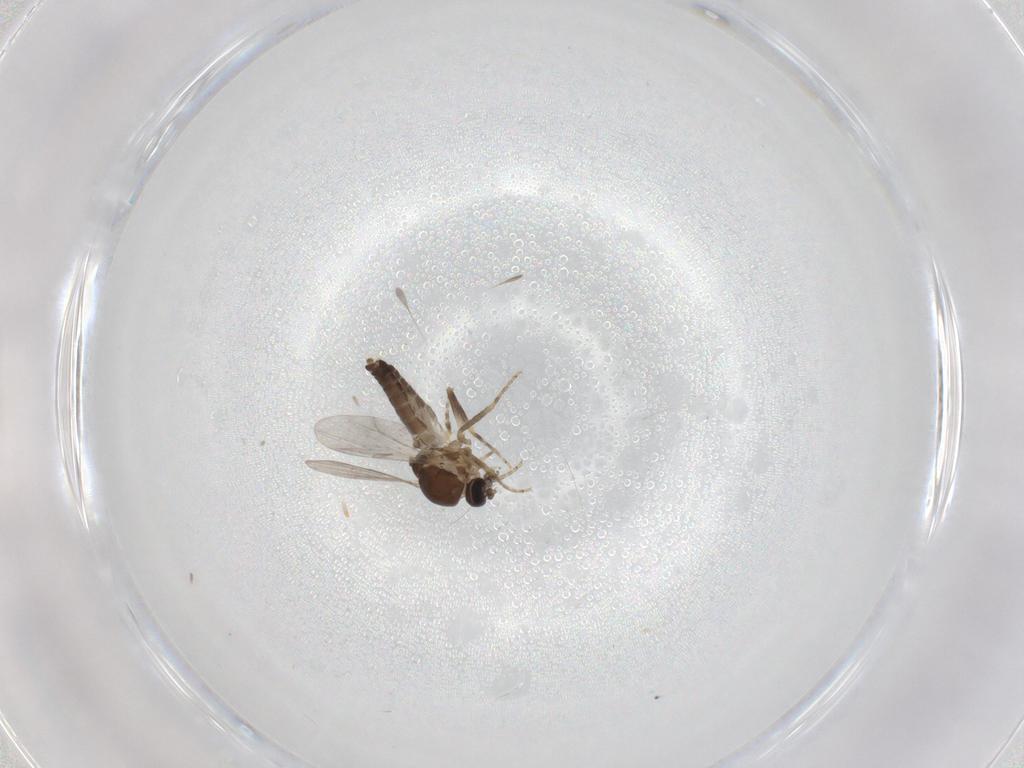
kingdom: Animalia
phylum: Arthropoda
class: Insecta
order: Diptera
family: Ceratopogonidae
